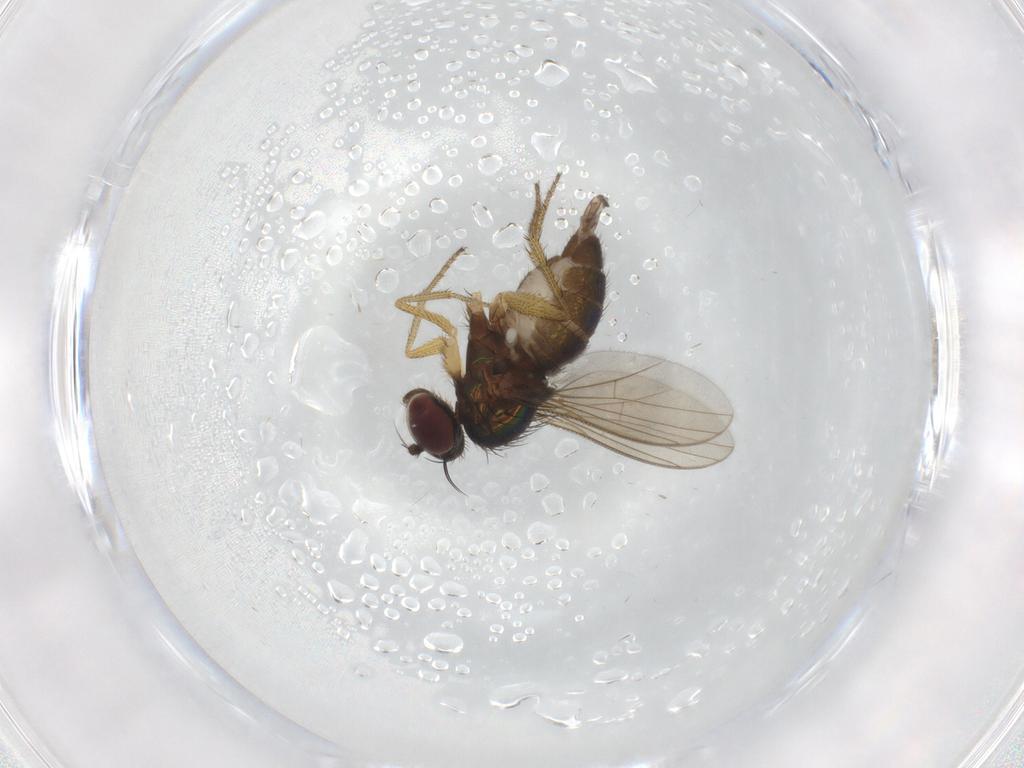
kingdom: Animalia
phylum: Arthropoda
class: Insecta
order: Diptera
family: Dolichopodidae
